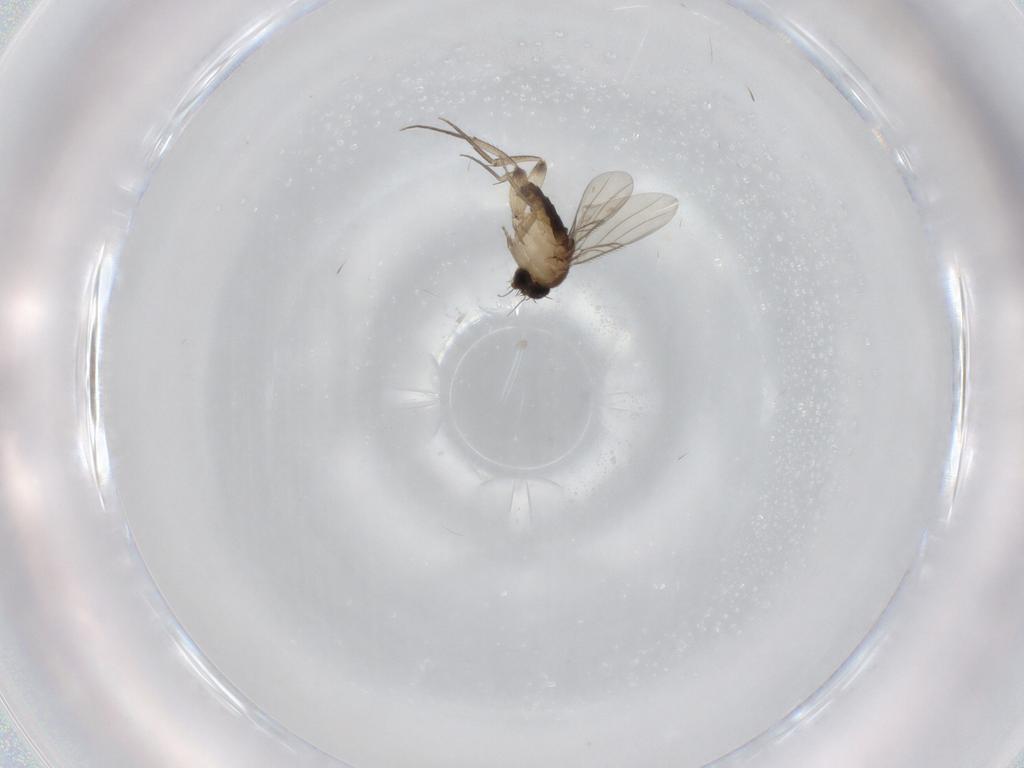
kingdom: Animalia
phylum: Arthropoda
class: Insecta
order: Diptera
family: Phoridae
